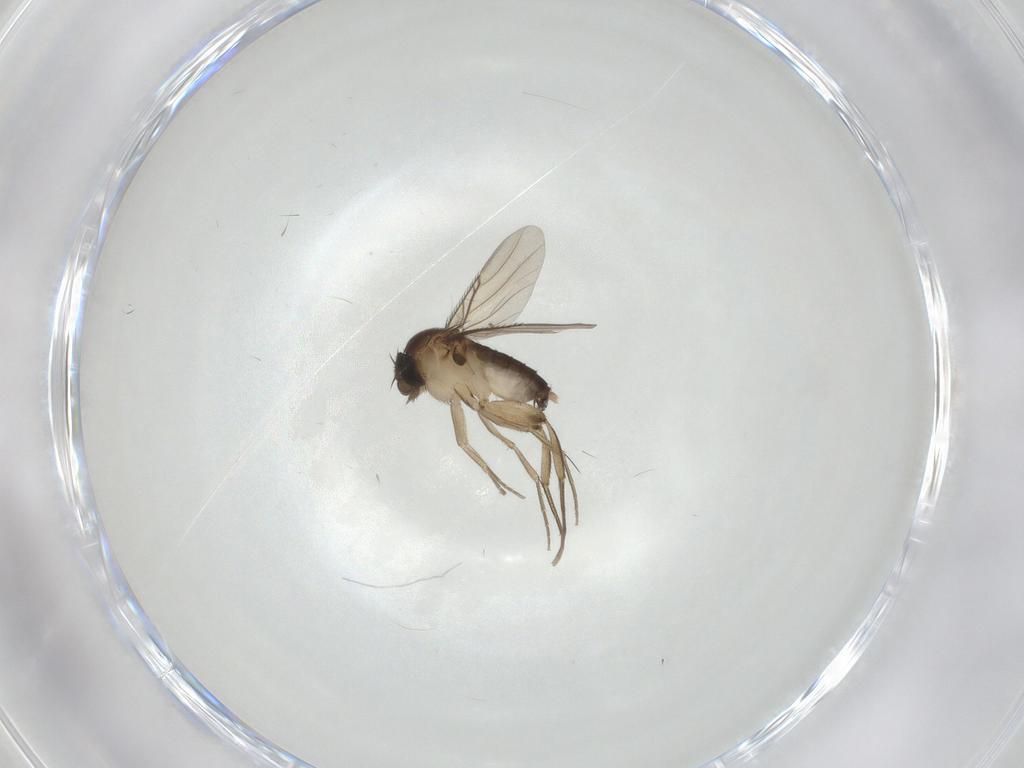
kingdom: Animalia
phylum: Arthropoda
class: Insecta
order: Diptera
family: Phoridae
